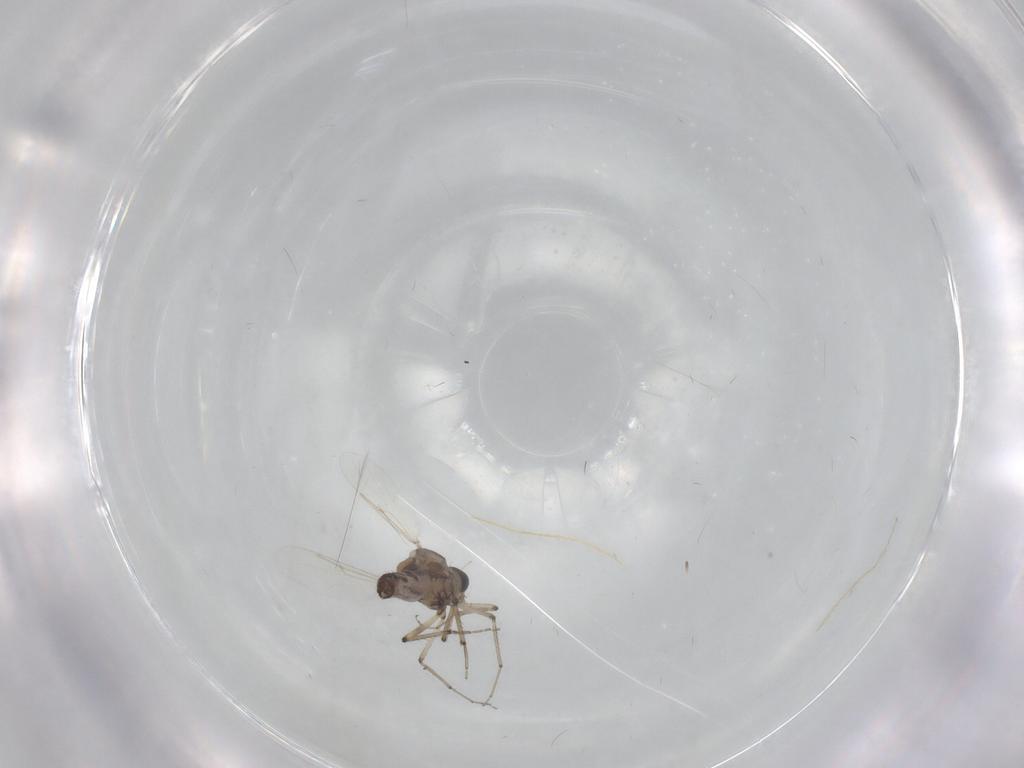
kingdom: Animalia
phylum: Arthropoda
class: Insecta
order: Diptera
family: Ceratopogonidae
